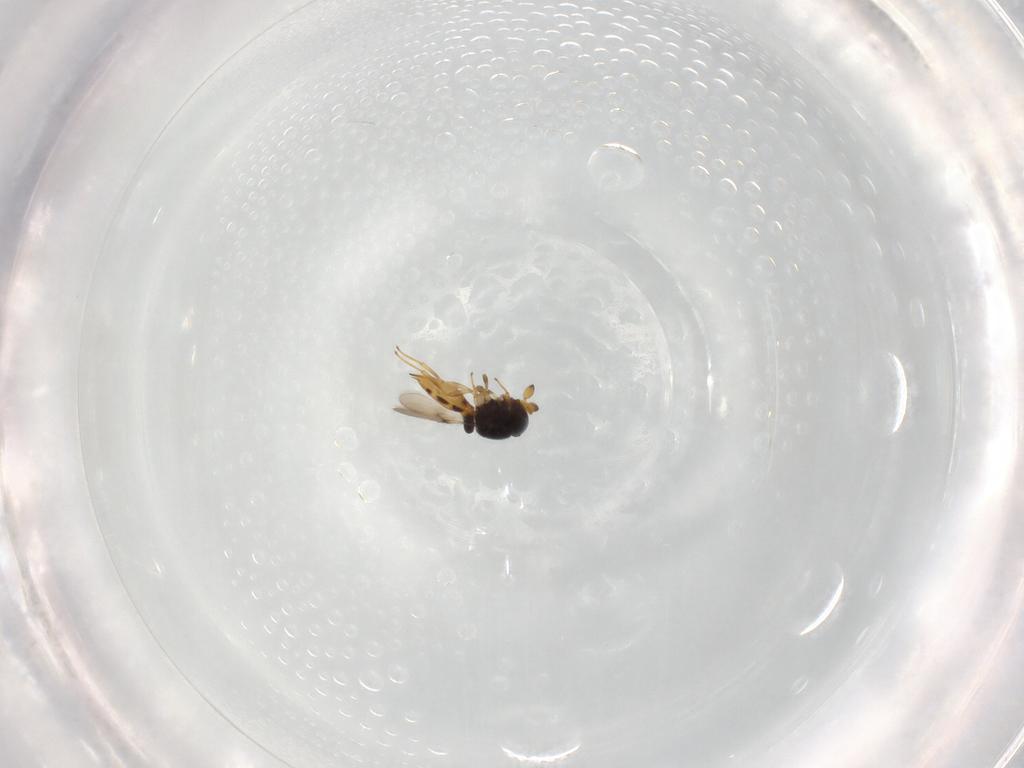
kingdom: Animalia
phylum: Arthropoda
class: Insecta
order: Hymenoptera
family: Scelionidae
